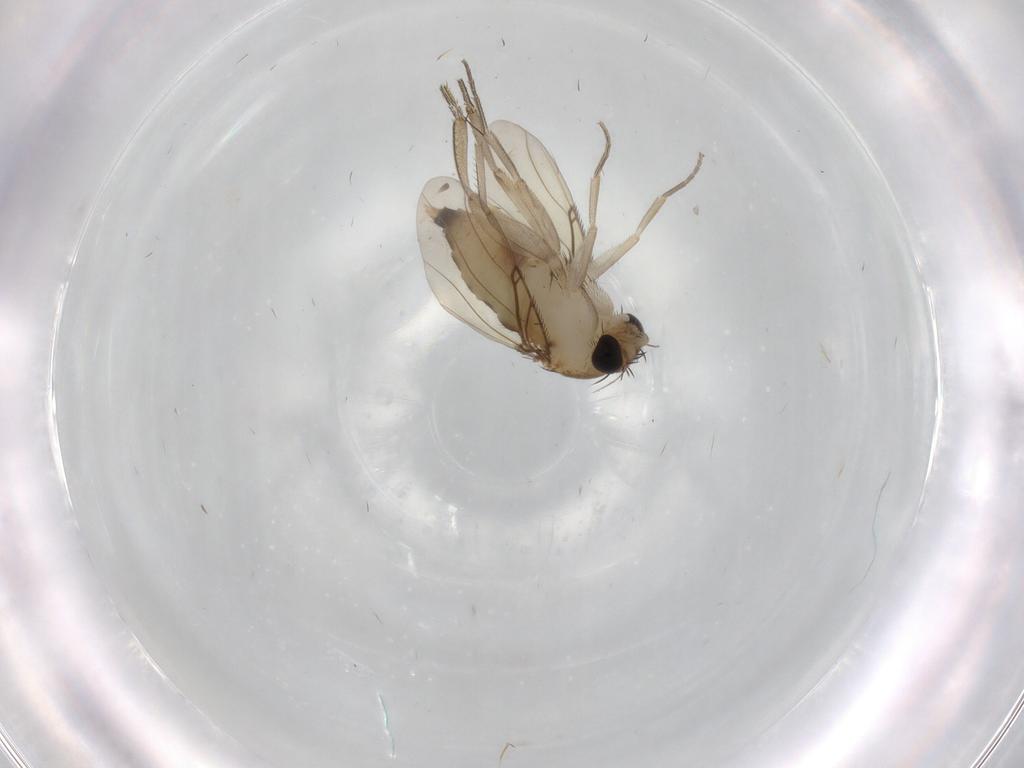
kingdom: Animalia
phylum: Arthropoda
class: Insecta
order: Diptera
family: Phoridae
